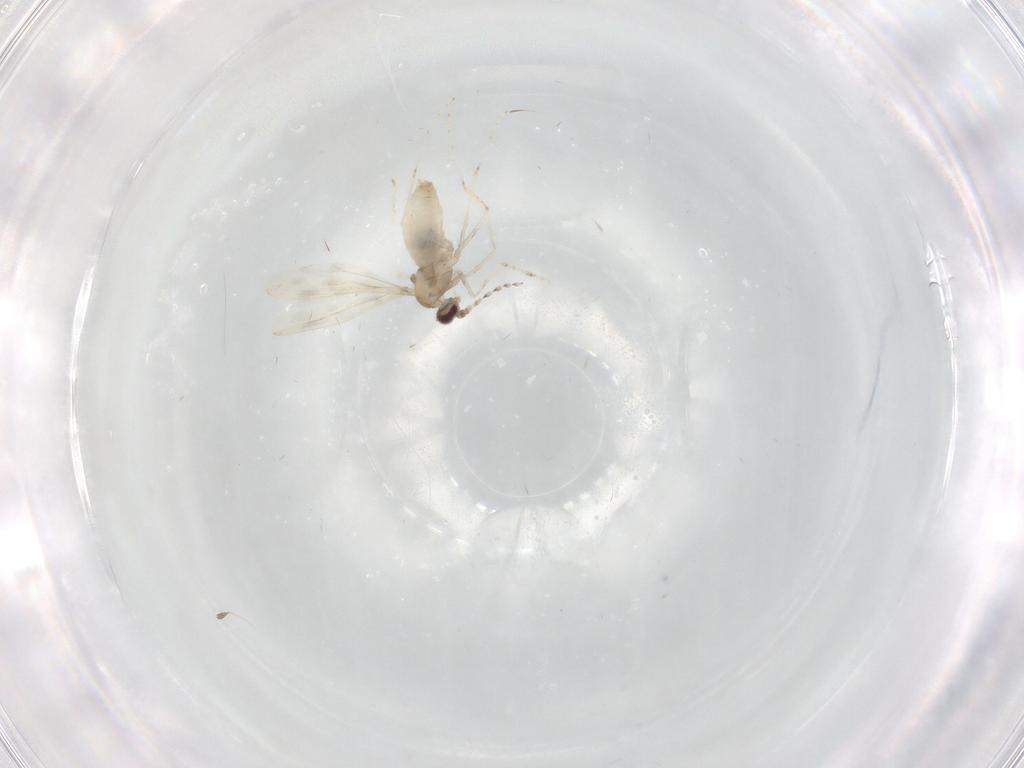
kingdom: Animalia
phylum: Arthropoda
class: Insecta
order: Diptera
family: Cecidomyiidae
